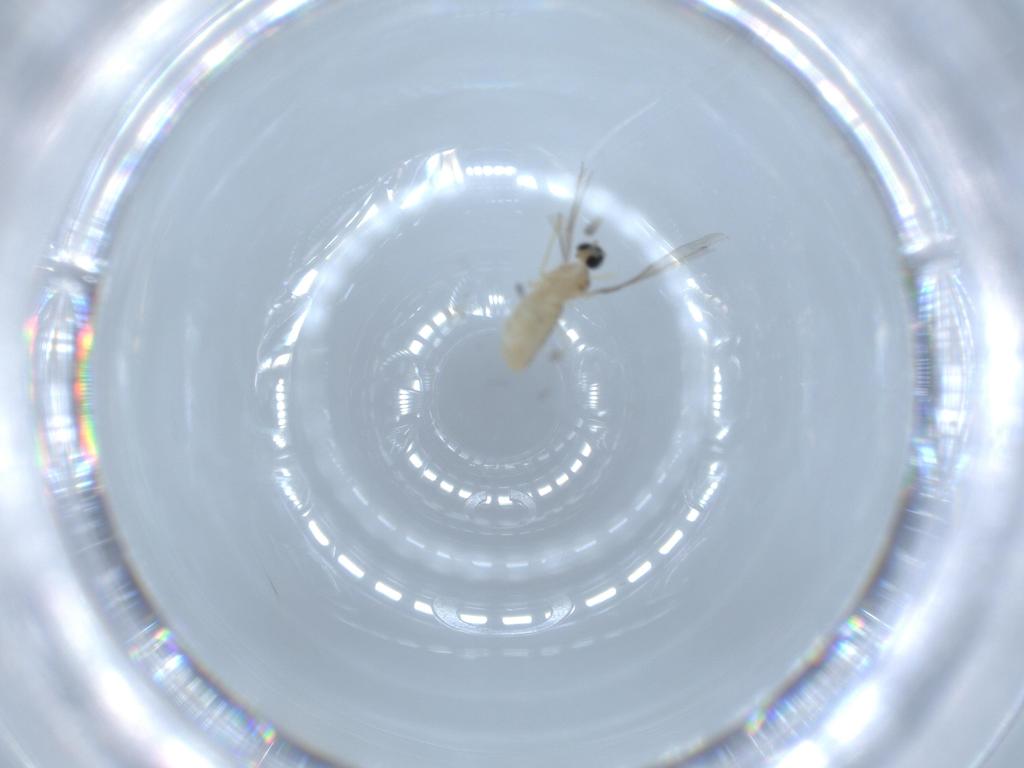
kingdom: Animalia
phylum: Arthropoda
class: Insecta
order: Diptera
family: Cecidomyiidae
